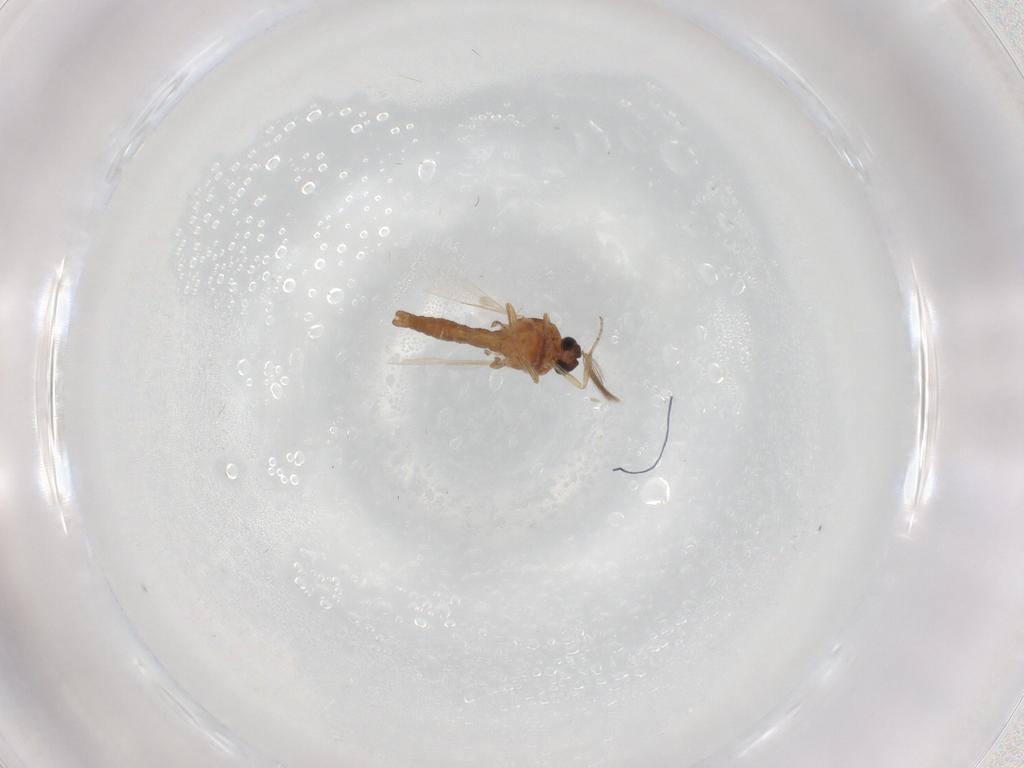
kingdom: Animalia
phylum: Arthropoda
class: Insecta
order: Diptera
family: Ceratopogonidae
